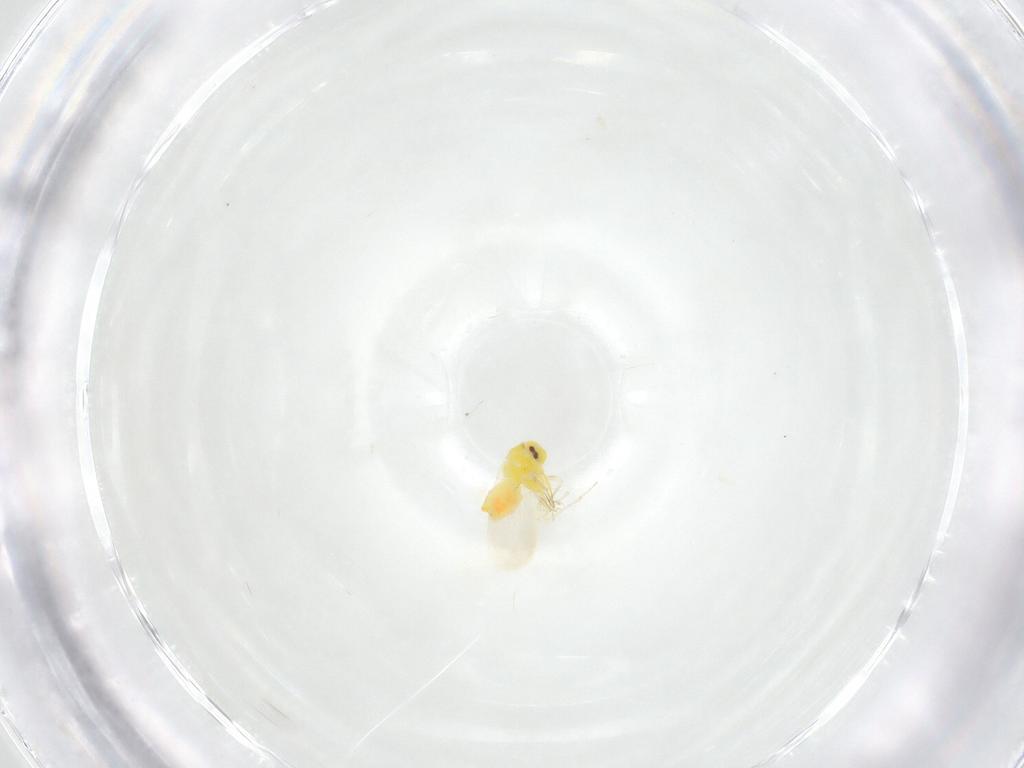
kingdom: Animalia
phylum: Arthropoda
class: Insecta
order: Hemiptera
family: Aleyrodidae
